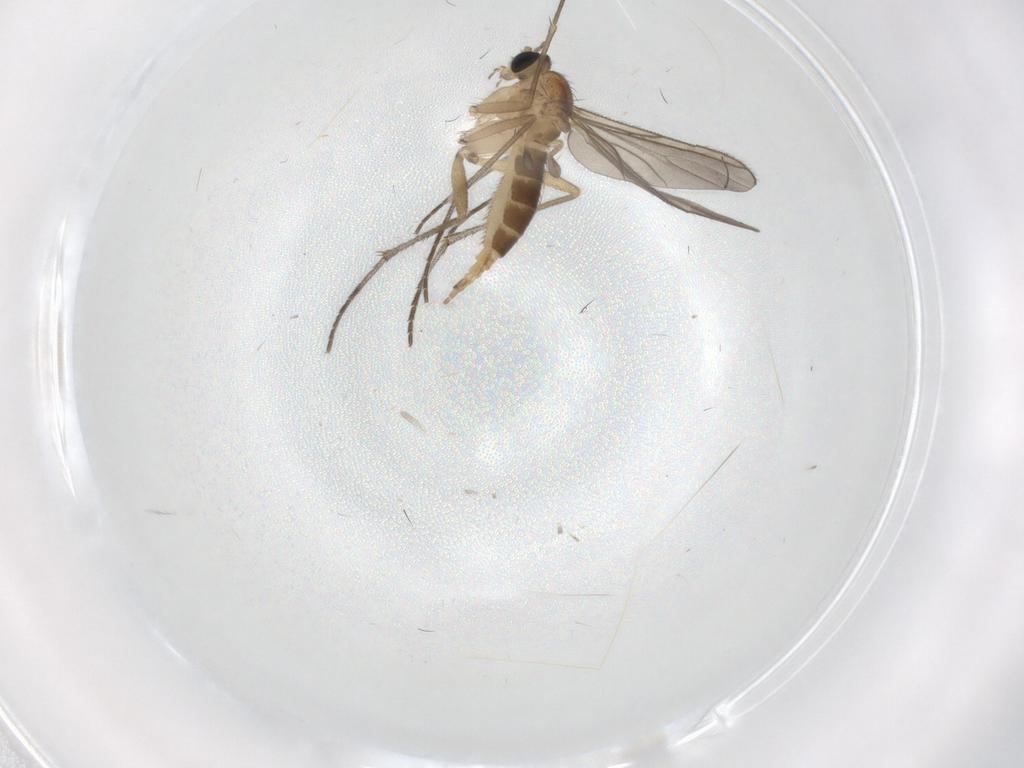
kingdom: Animalia
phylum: Arthropoda
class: Insecta
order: Diptera
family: Sciaridae
